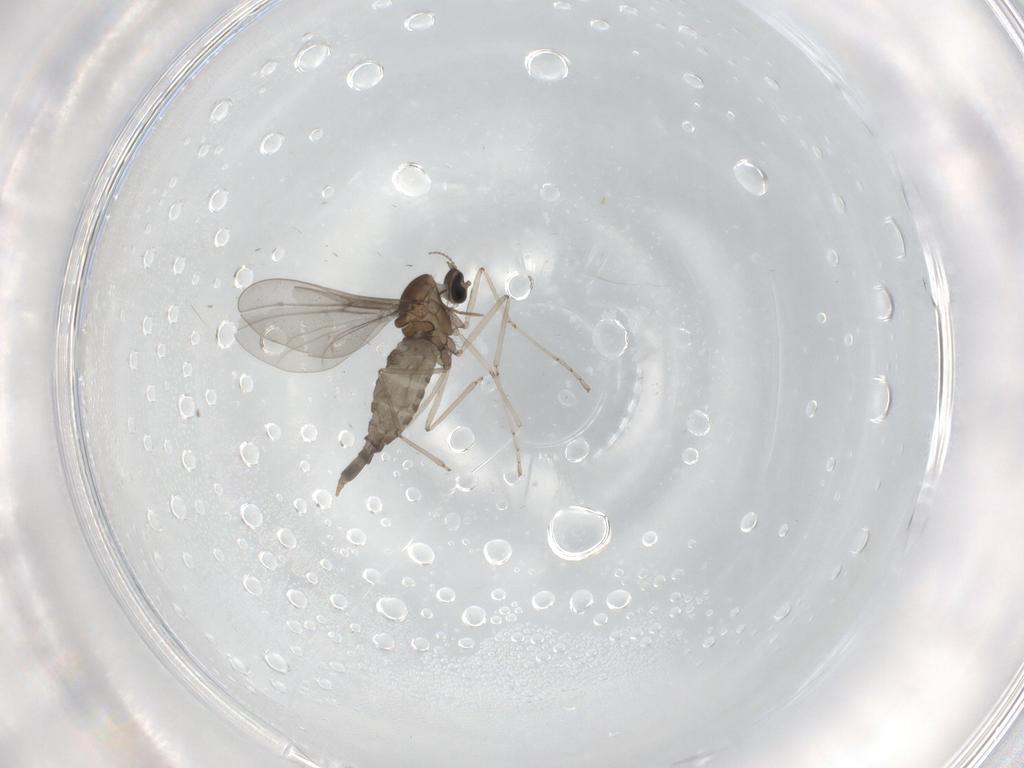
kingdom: Animalia
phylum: Arthropoda
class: Insecta
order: Diptera
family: Cecidomyiidae
